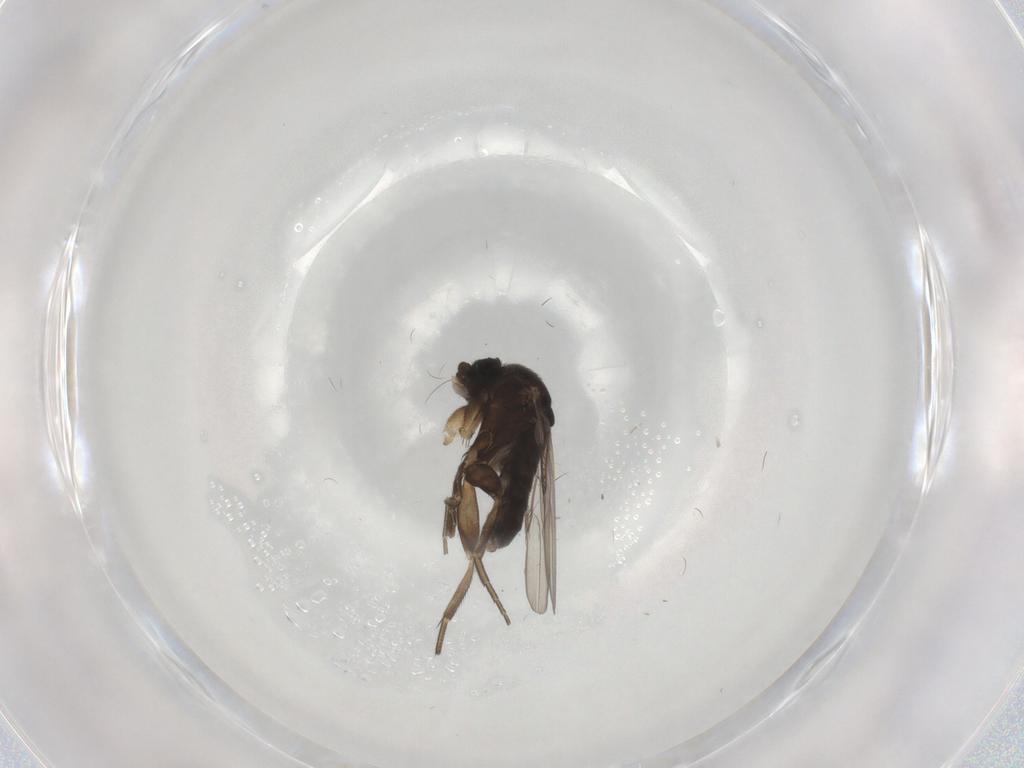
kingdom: Animalia
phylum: Arthropoda
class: Insecta
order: Diptera
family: Phoridae
